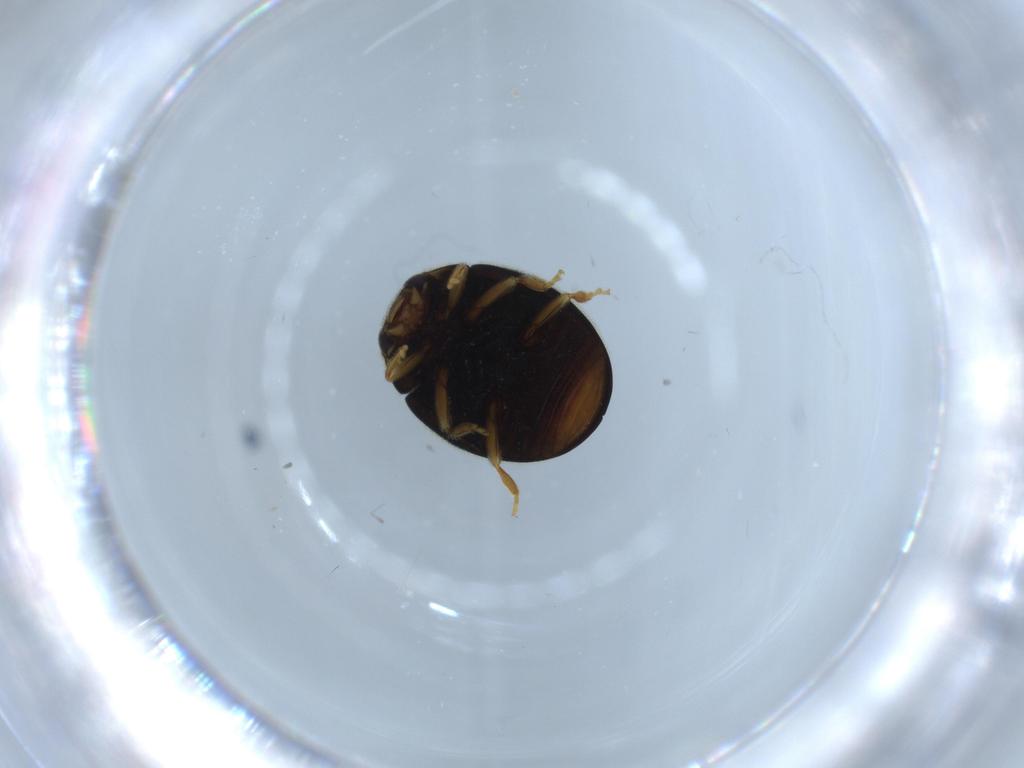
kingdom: Animalia
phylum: Arthropoda
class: Insecta
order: Coleoptera
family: Coccinellidae
